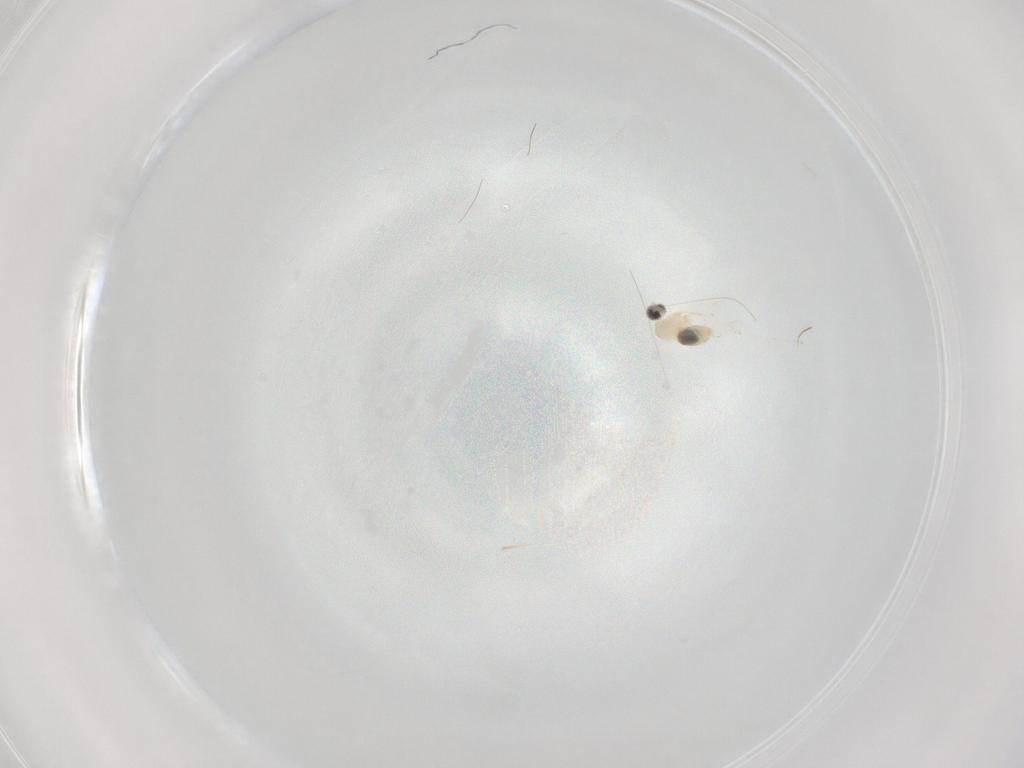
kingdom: Animalia
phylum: Arthropoda
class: Insecta
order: Diptera
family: Cecidomyiidae
